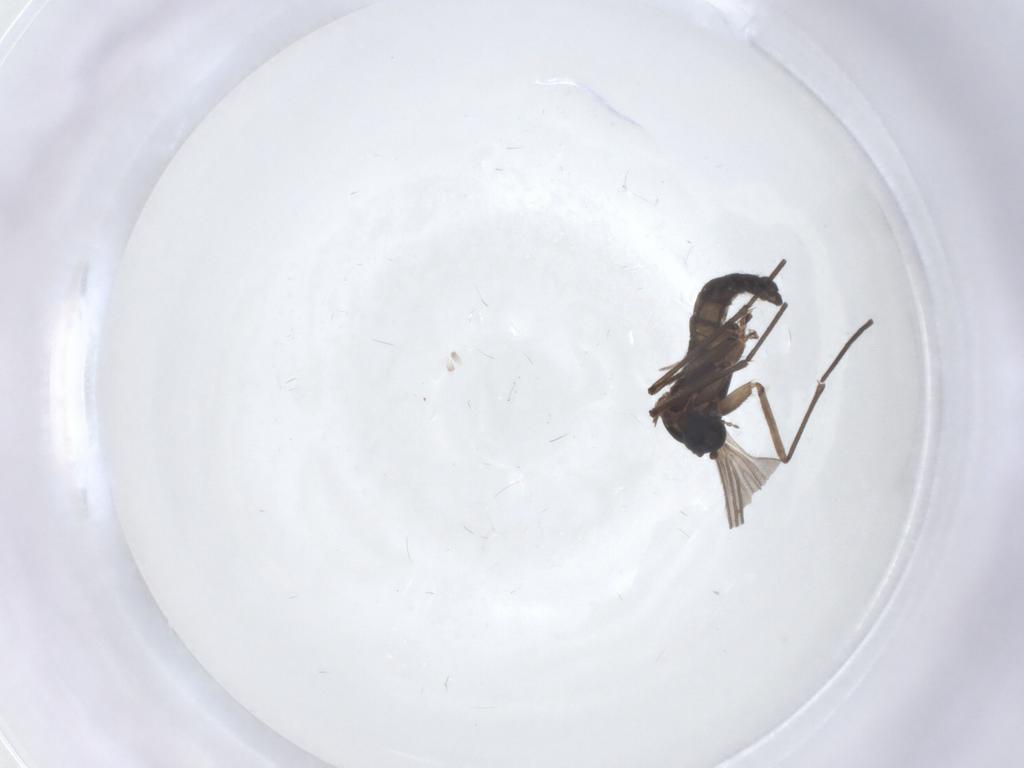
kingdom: Animalia
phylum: Arthropoda
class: Insecta
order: Diptera
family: Sciaridae
